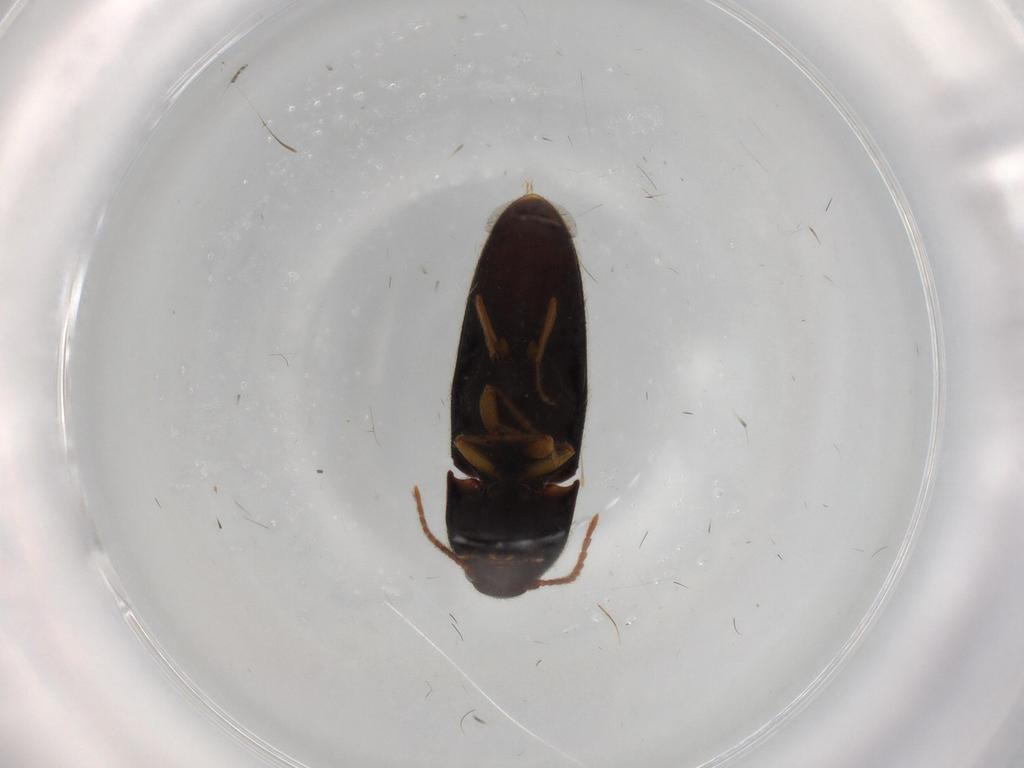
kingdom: Animalia
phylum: Arthropoda
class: Insecta
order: Coleoptera
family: Elateridae
